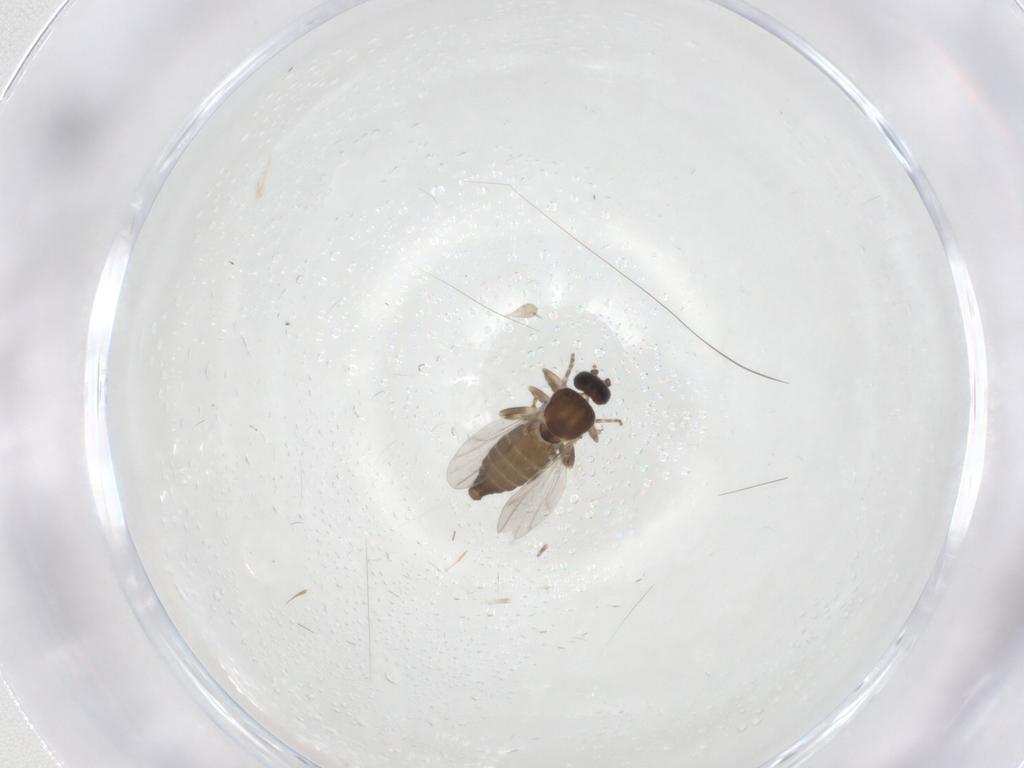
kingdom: Animalia
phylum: Arthropoda
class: Insecta
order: Diptera
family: Ceratopogonidae
